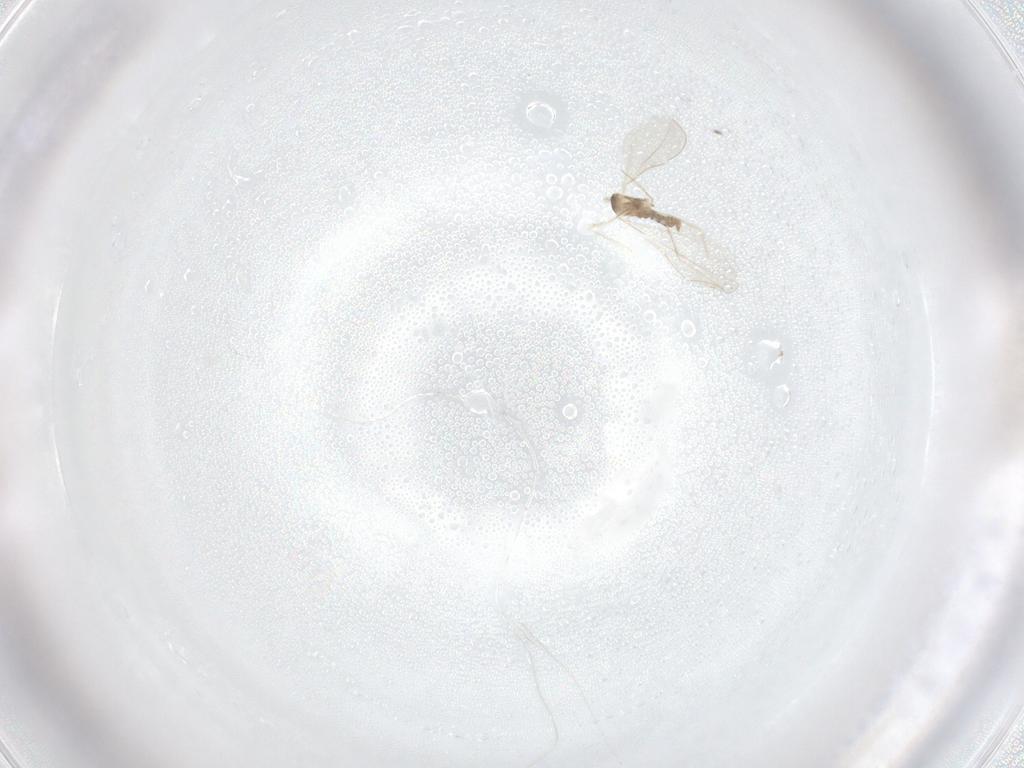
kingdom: Animalia
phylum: Arthropoda
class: Insecta
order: Diptera
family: Cecidomyiidae
